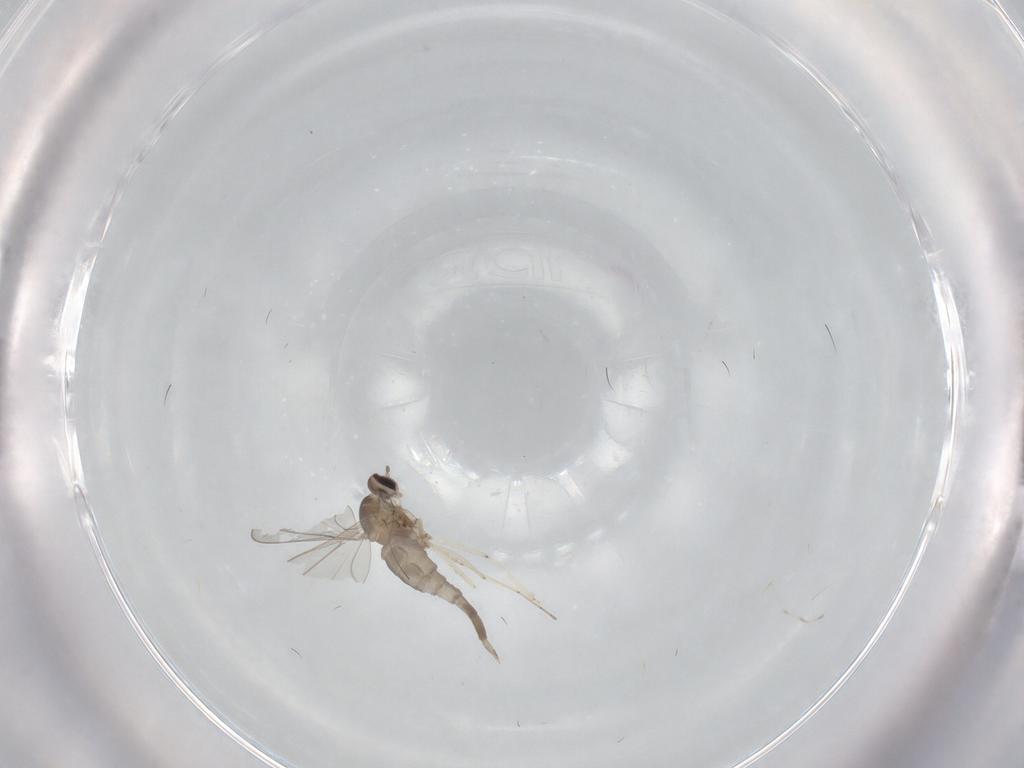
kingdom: Animalia
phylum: Arthropoda
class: Insecta
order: Diptera
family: Cecidomyiidae
